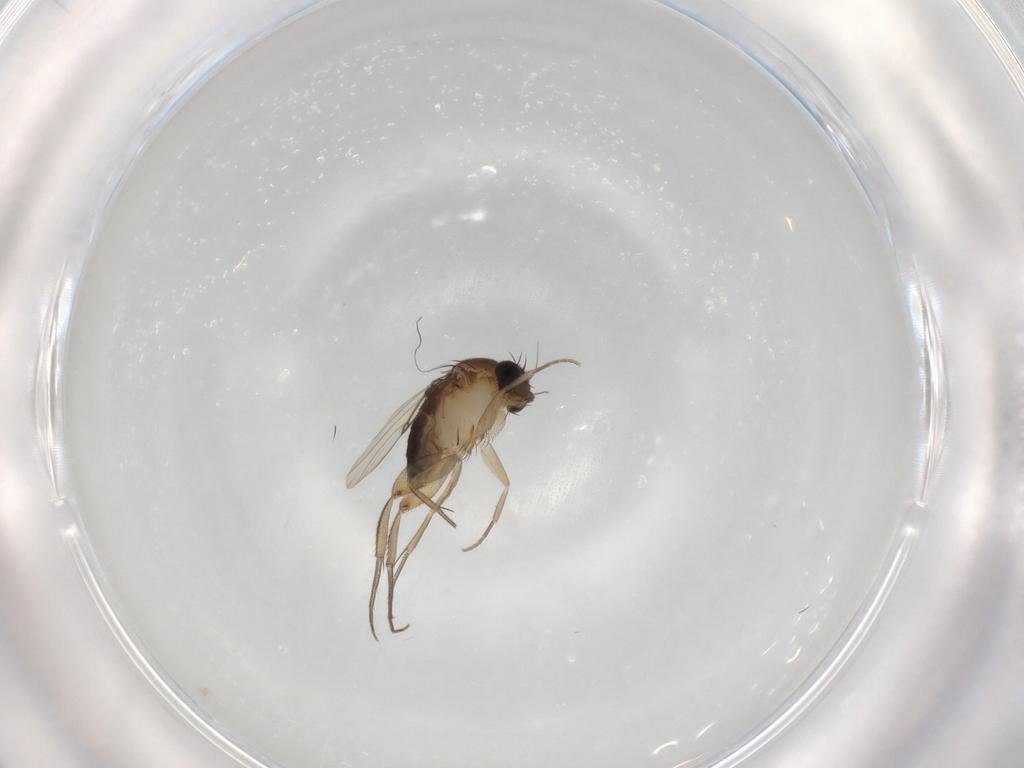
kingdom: Animalia
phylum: Arthropoda
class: Insecta
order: Diptera
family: Phoridae
